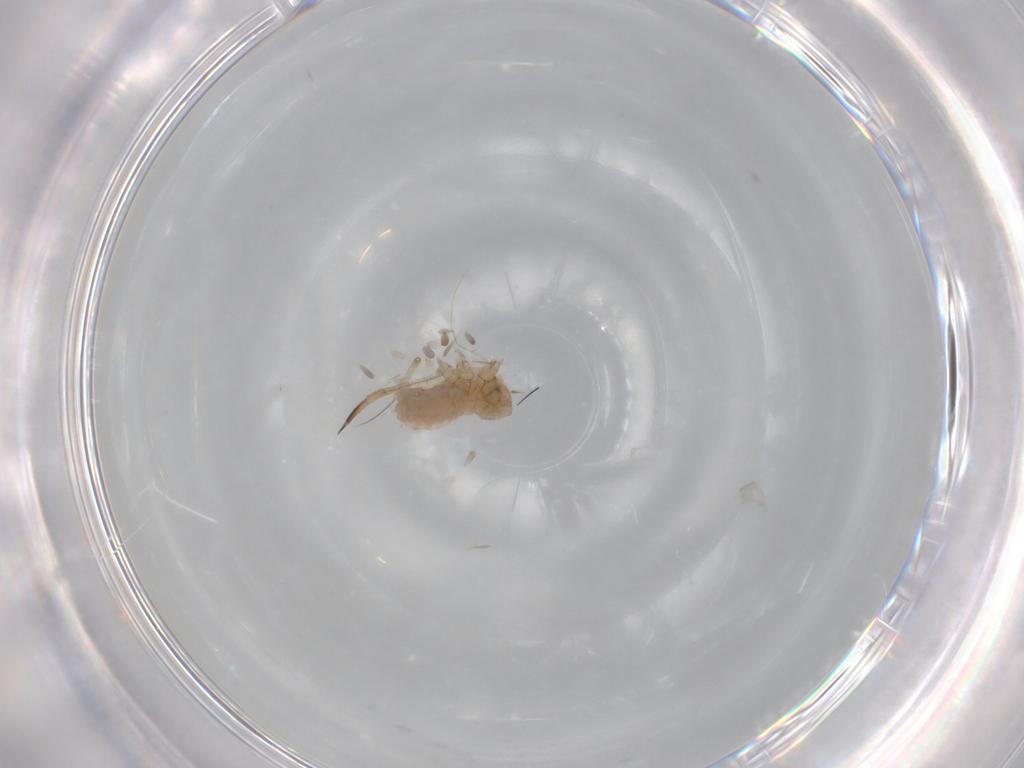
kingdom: Animalia
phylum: Arthropoda
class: Insecta
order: Hemiptera
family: Aphididae
